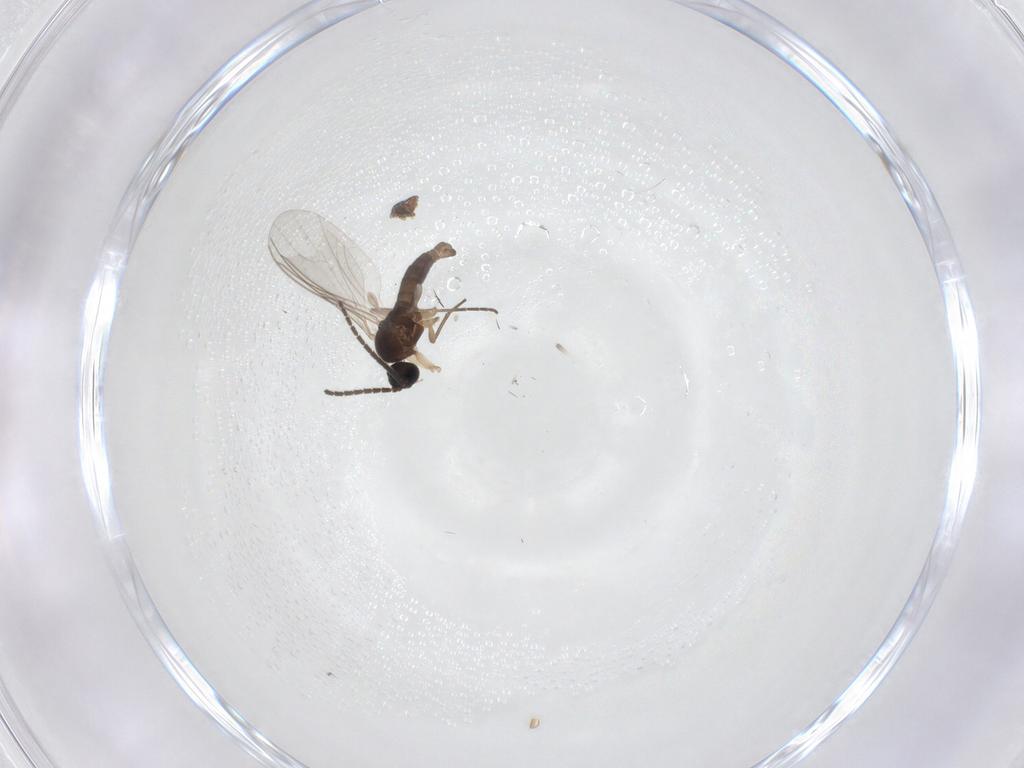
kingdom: Animalia
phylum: Arthropoda
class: Insecta
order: Diptera
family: Sciaridae
